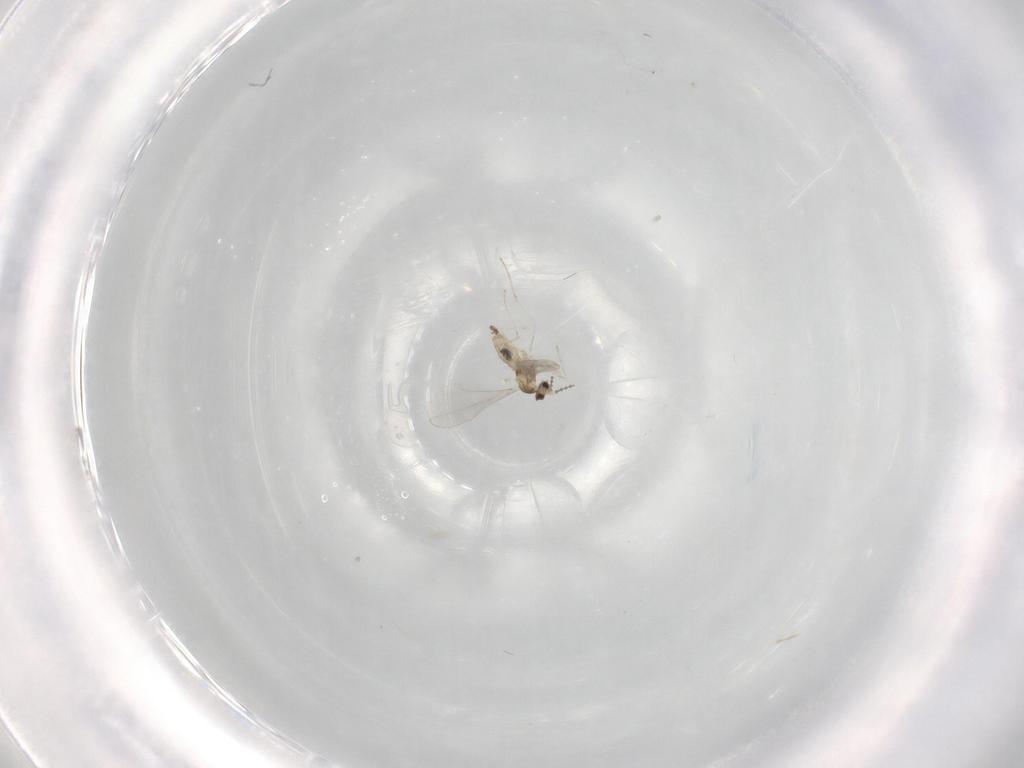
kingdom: Animalia
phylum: Arthropoda
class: Insecta
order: Diptera
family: Cecidomyiidae
